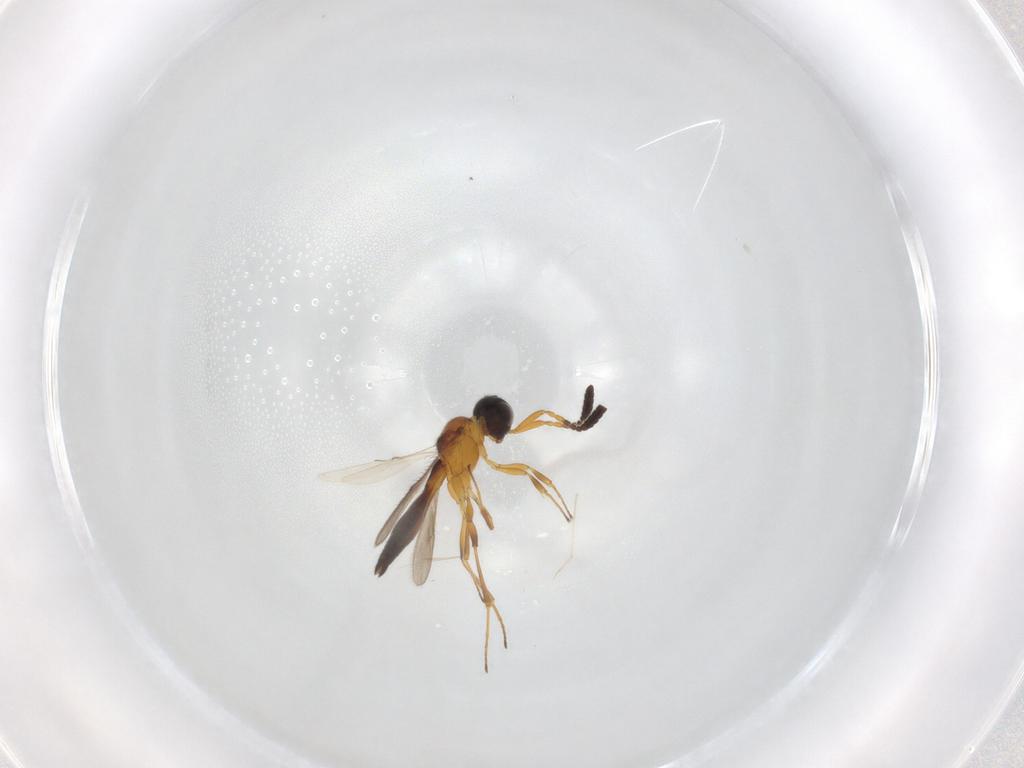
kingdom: Animalia
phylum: Arthropoda
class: Insecta
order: Hymenoptera
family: Scelionidae
